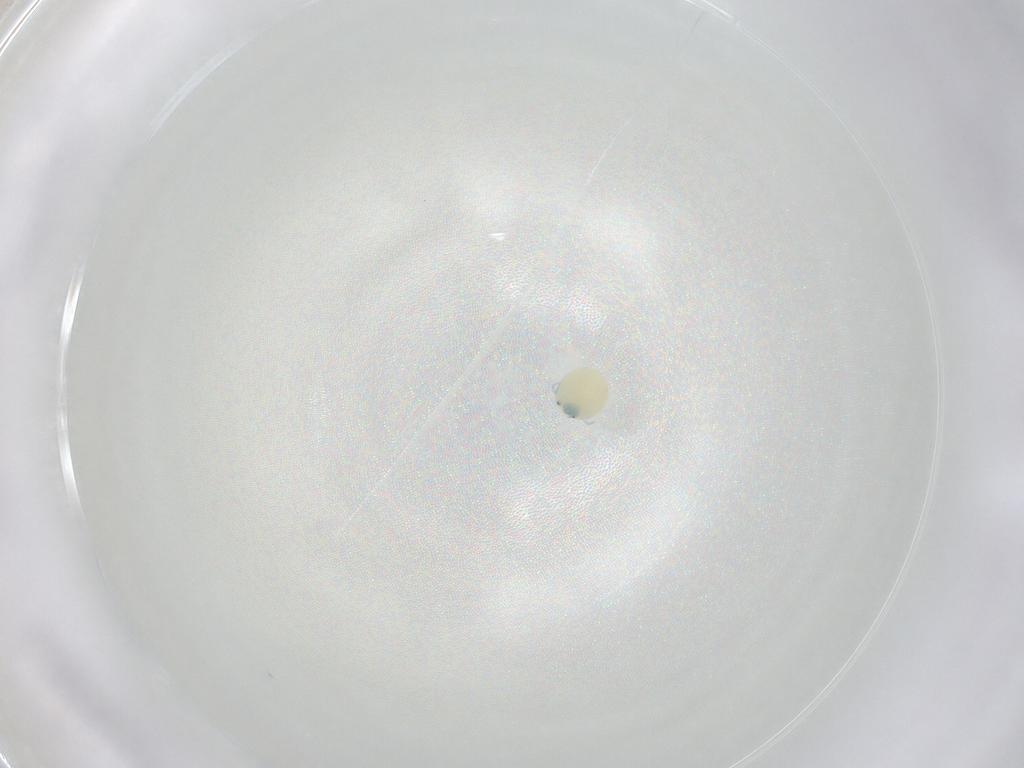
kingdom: Animalia
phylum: Arthropoda
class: Arachnida
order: Trombidiformes
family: Arrenuridae
